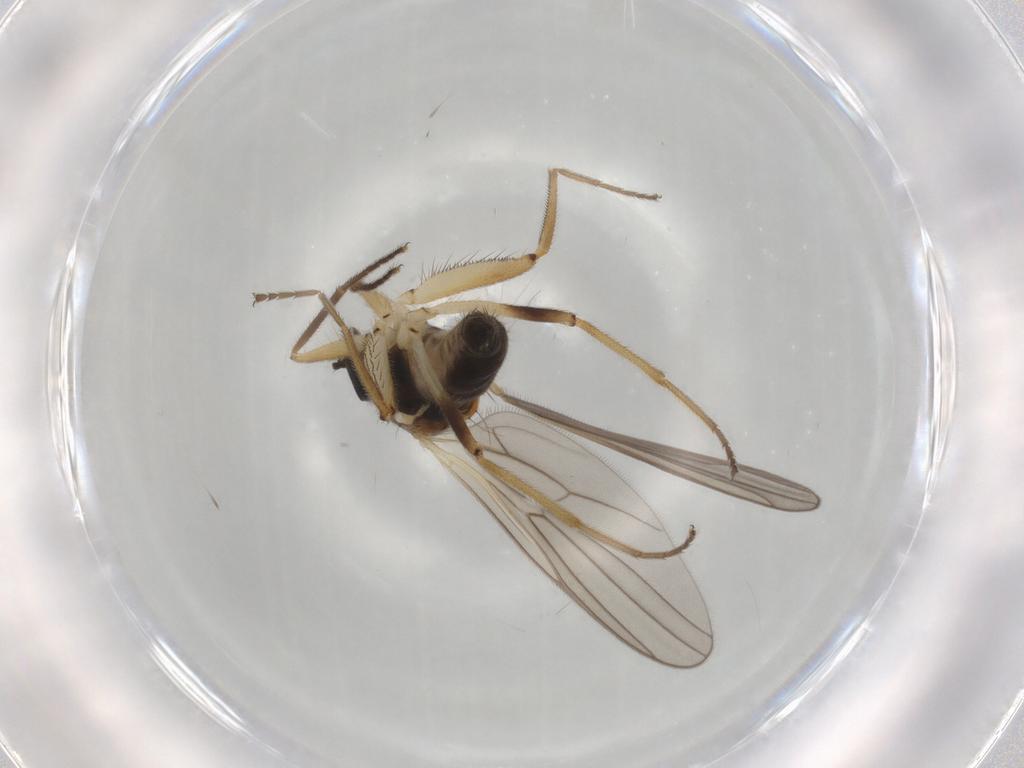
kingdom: Animalia
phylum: Arthropoda
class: Insecta
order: Diptera
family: Hybotidae
